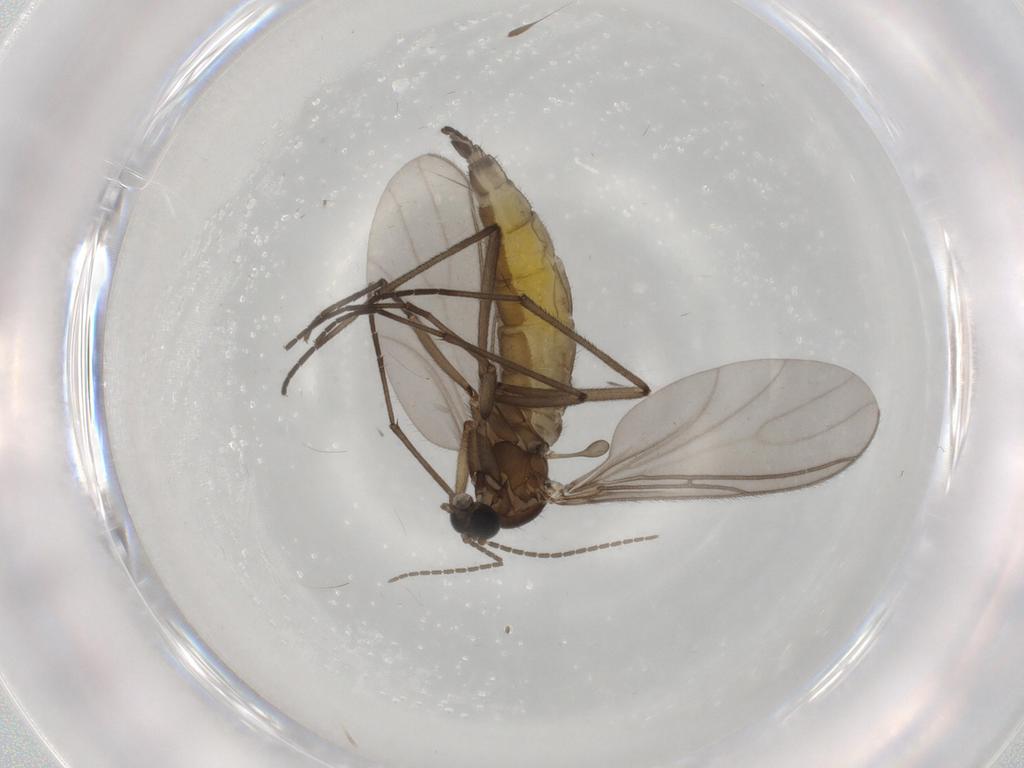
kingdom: Animalia
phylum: Arthropoda
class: Insecta
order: Diptera
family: Sciaridae
